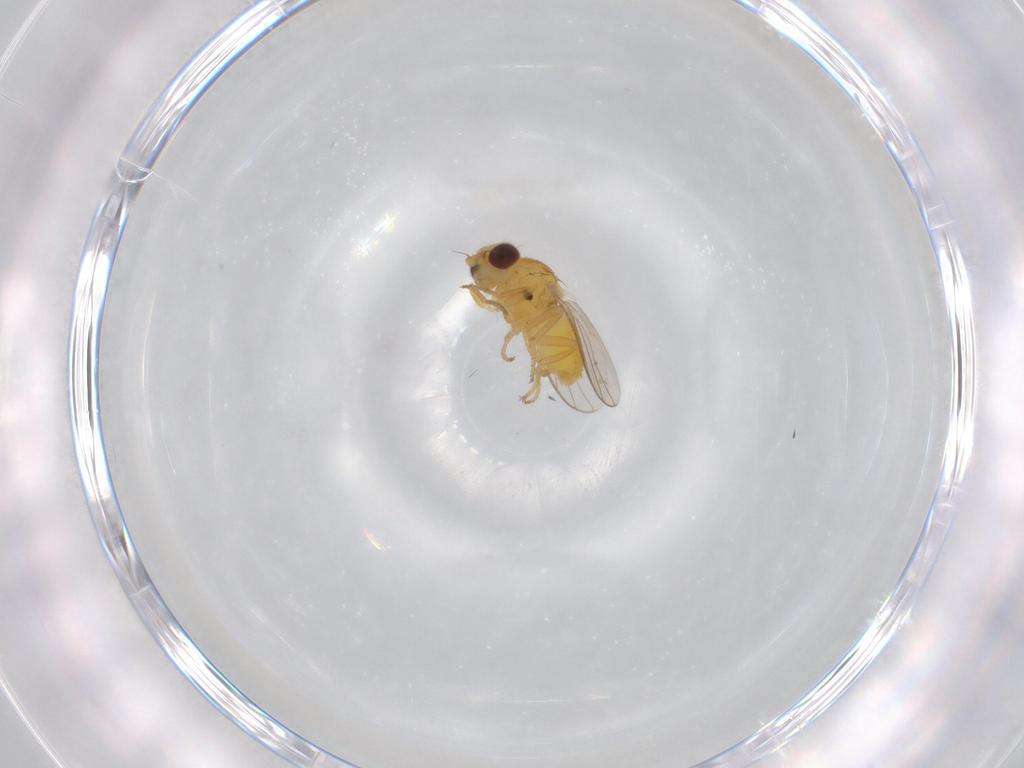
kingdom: Animalia
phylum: Arthropoda
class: Insecta
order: Diptera
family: Chloropidae
